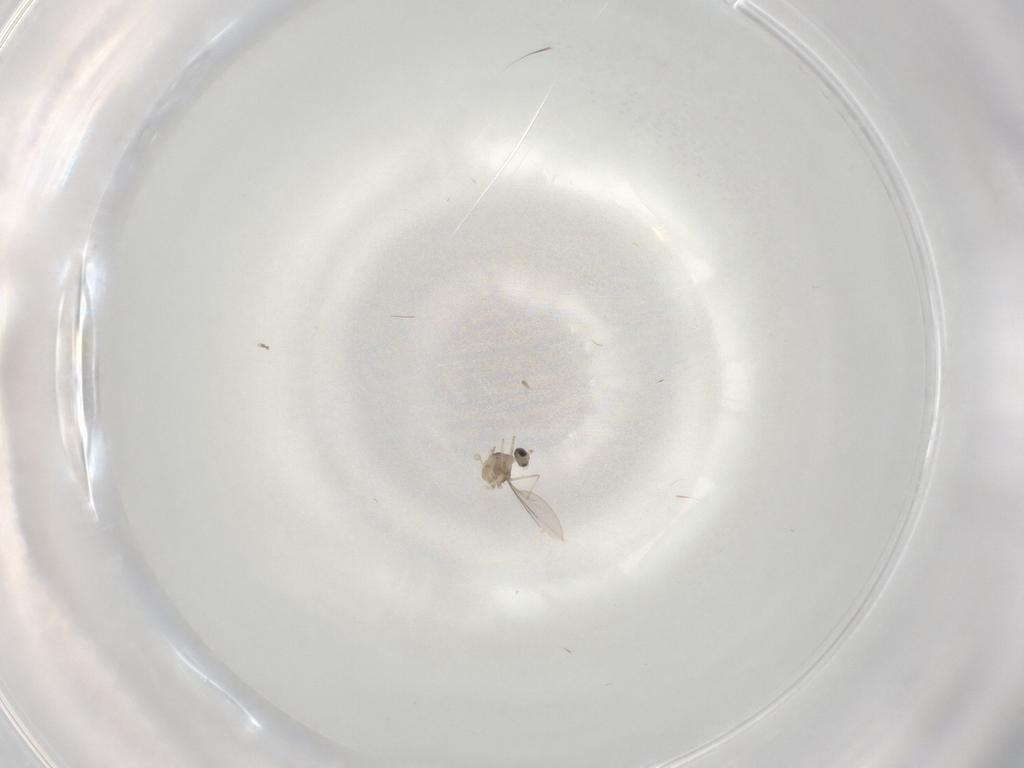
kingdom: Animalia
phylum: Arthropoda
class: Insecta
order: Diptera
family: Cecidomyiidae
